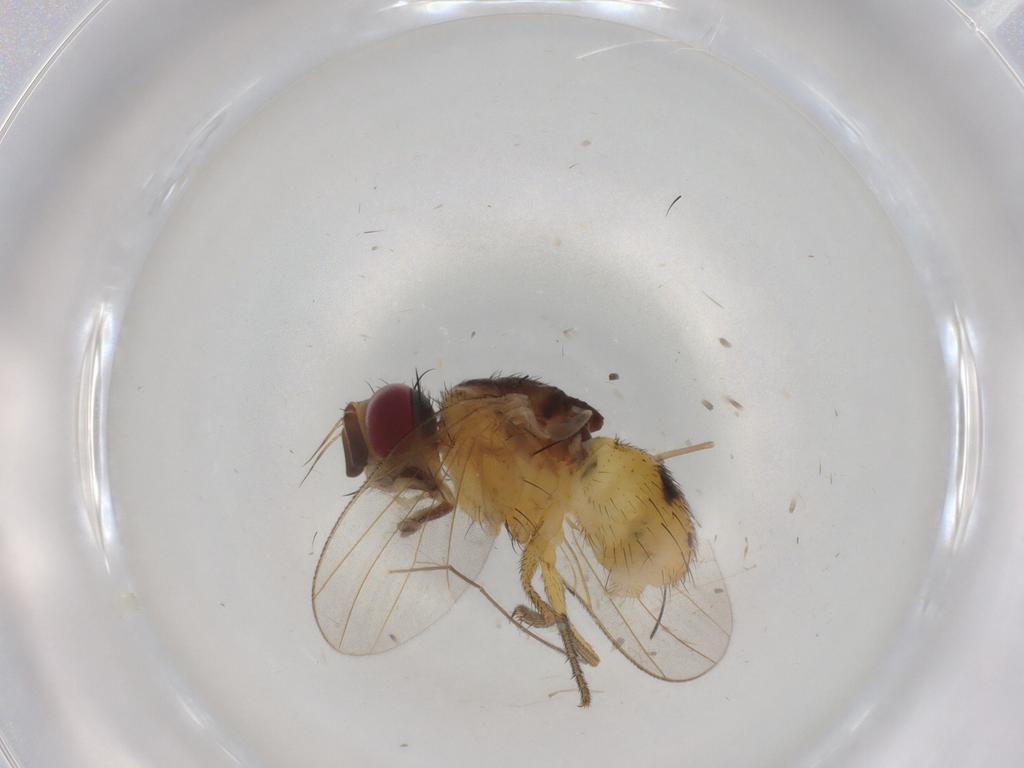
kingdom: Animalia
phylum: Arthropoda
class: Insecta
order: Diptera
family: Muscidae
